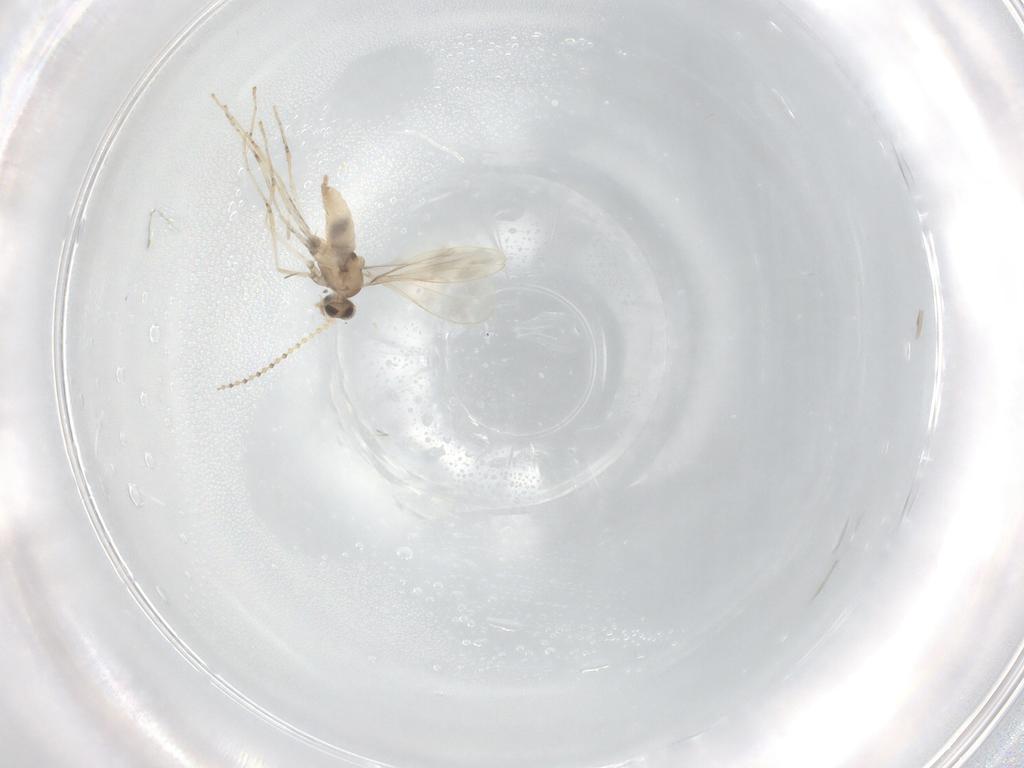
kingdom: Animalia
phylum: Arthropoda
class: Insecta
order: Diptera
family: Cecidomyiidae
